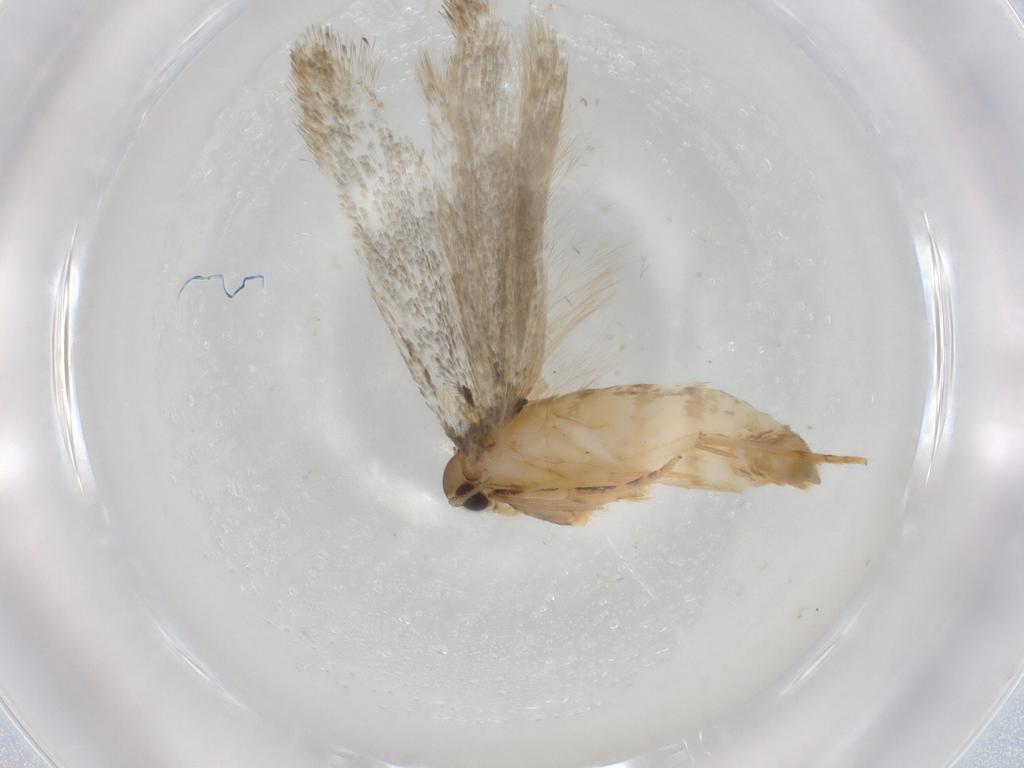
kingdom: Animalia
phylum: Arthropoda
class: Insecta
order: Lepidoptera
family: Autostichidae
